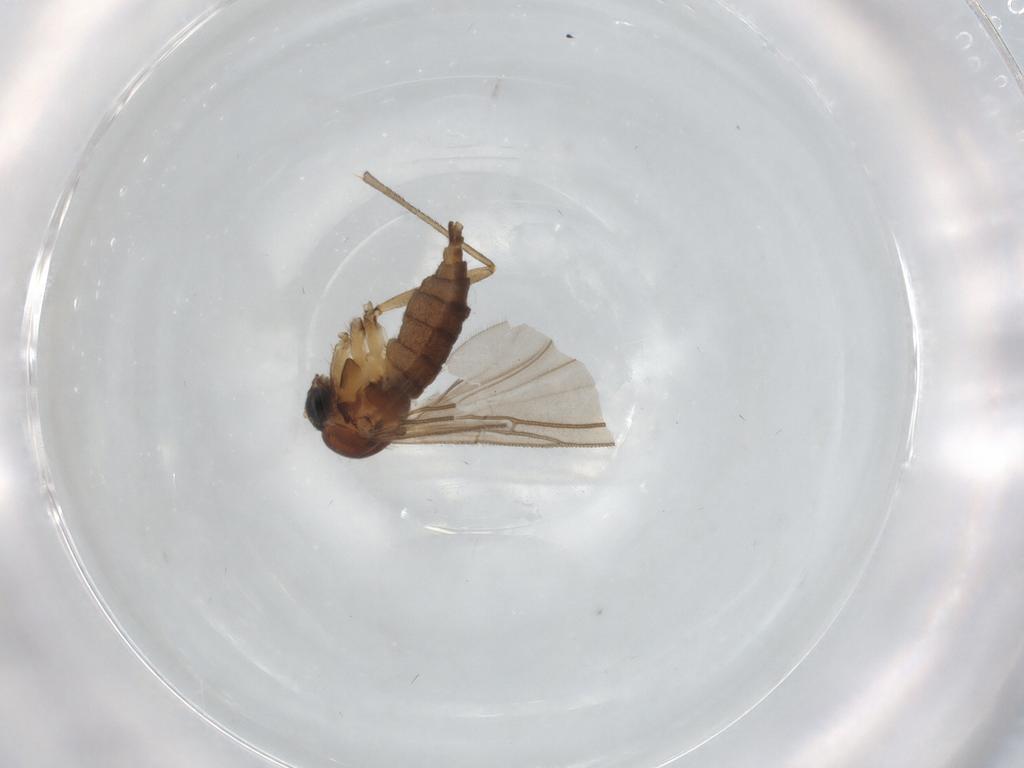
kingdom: Animalia
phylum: Arthropoda
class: Insecta
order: Diptera
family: Sciaridae
